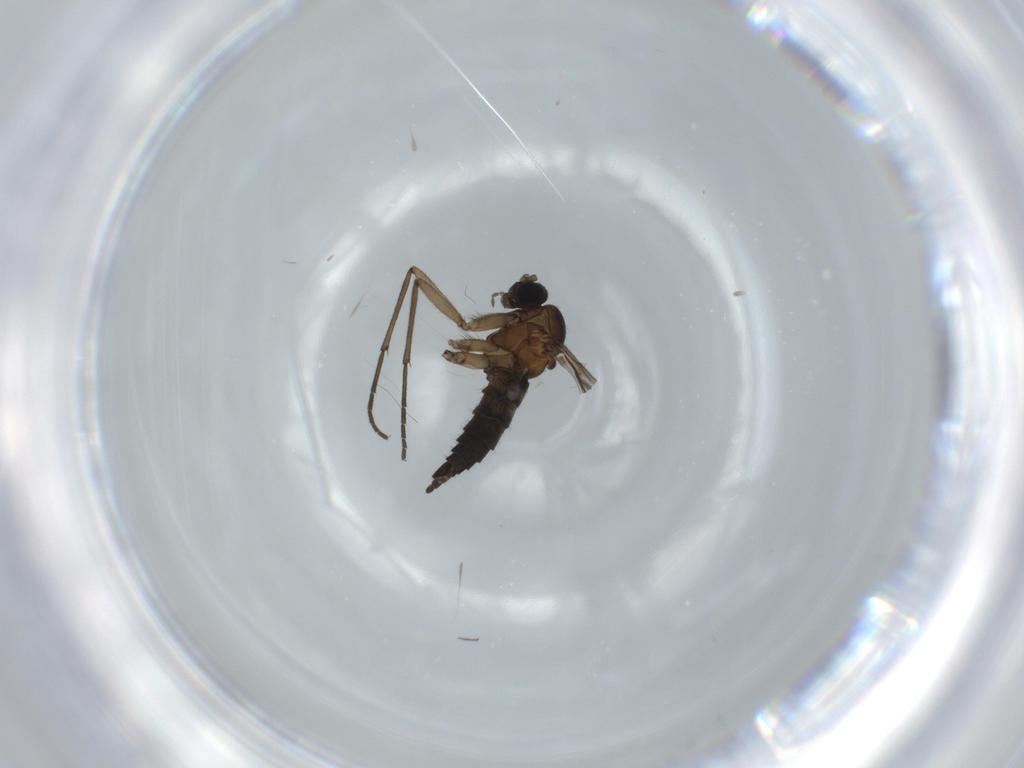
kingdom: Animalia
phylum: Arthropoda
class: Insecta
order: Diptera
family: Sciaridae
